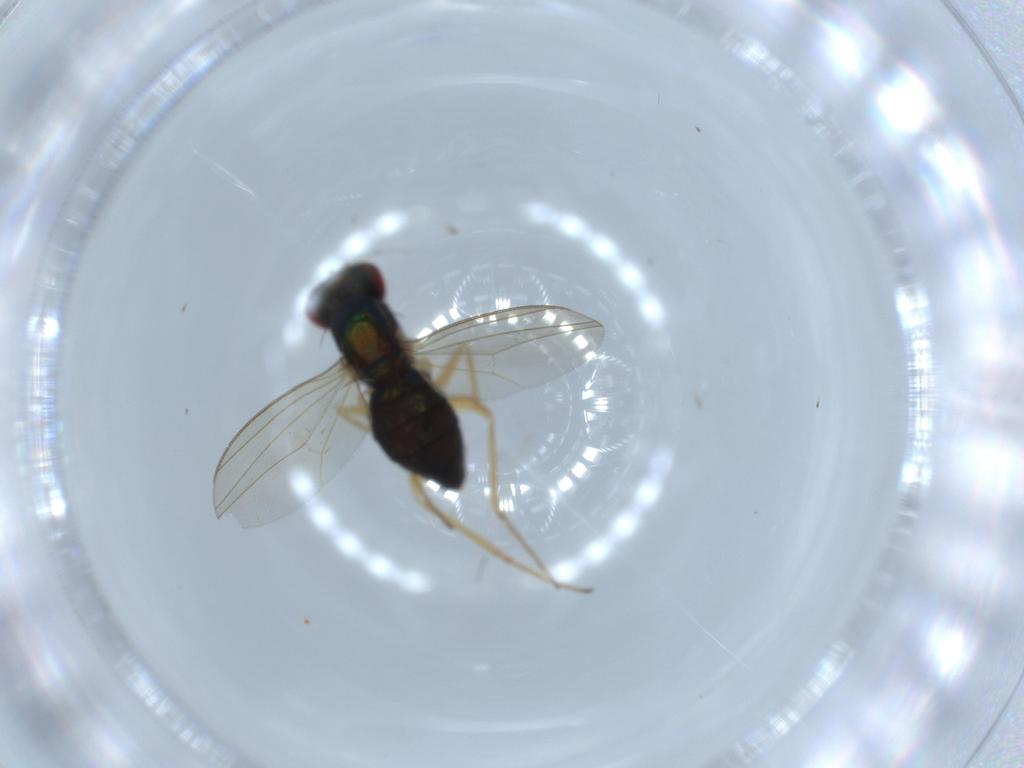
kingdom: Animalia
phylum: Arthropoda
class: Insecta
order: Diptera
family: Dolichopodidae
